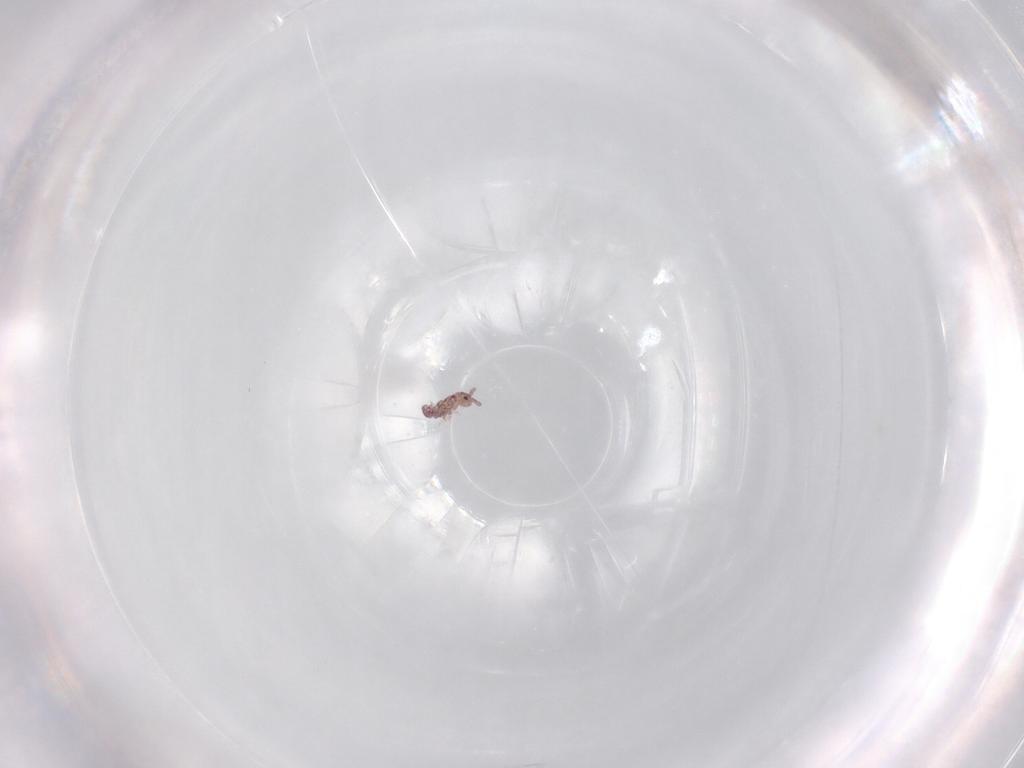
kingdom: Animalia
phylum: Arthropoda
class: Collembola
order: Poduromorpha
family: Hypogastruridae
